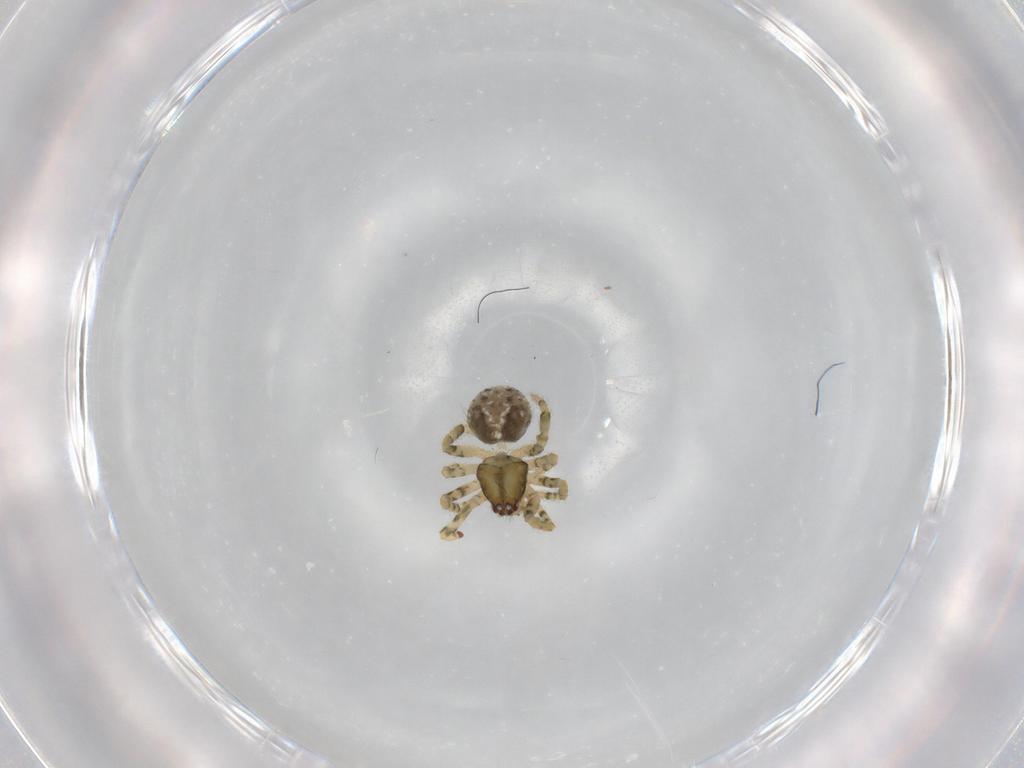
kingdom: Animalia
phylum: Arthropoda
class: Arachnida
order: Araneae
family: Theridiidae
